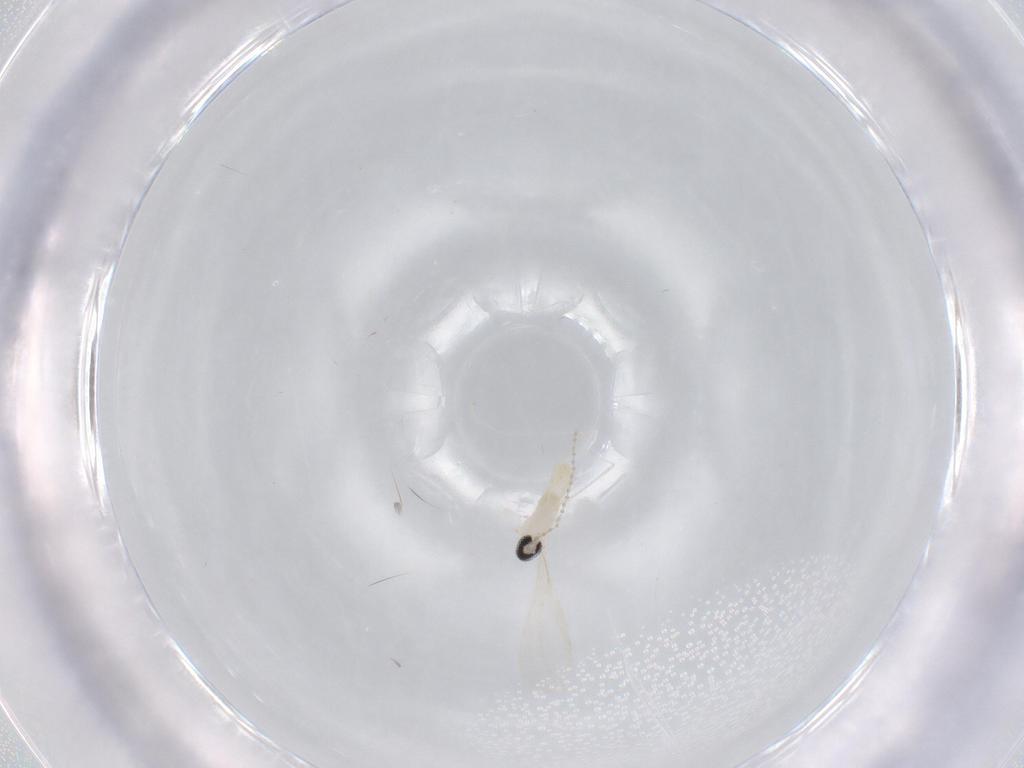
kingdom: Animalia
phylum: Arthropoda
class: Insecta
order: Diptera
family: Cecidomyiidae
